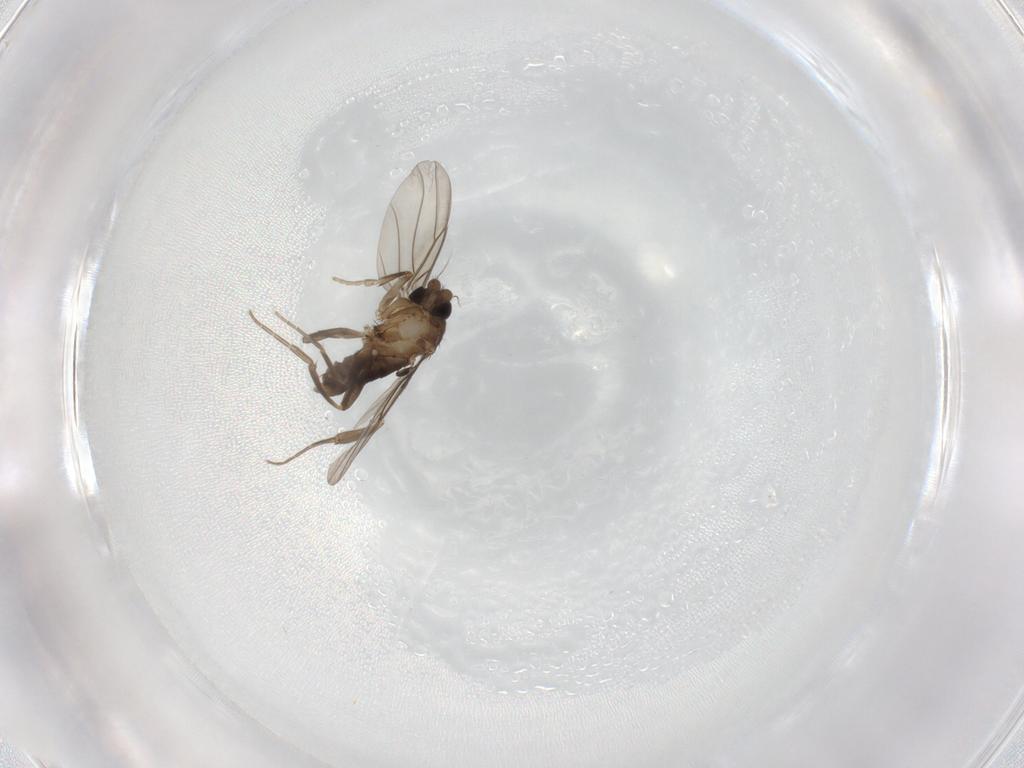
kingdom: Animalia
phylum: Arthropoda
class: Insecta
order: Diptera
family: Phoridae
